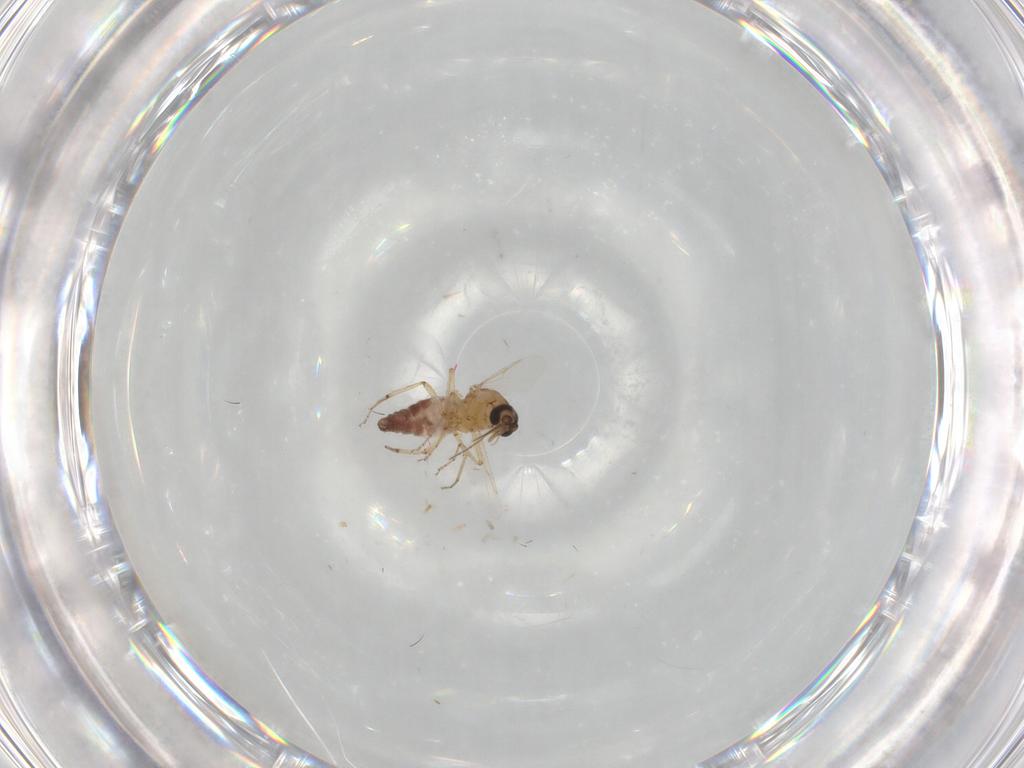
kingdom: Animalia
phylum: Arthropoda
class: Insecta
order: Diptera
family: Ceratopogonidae
